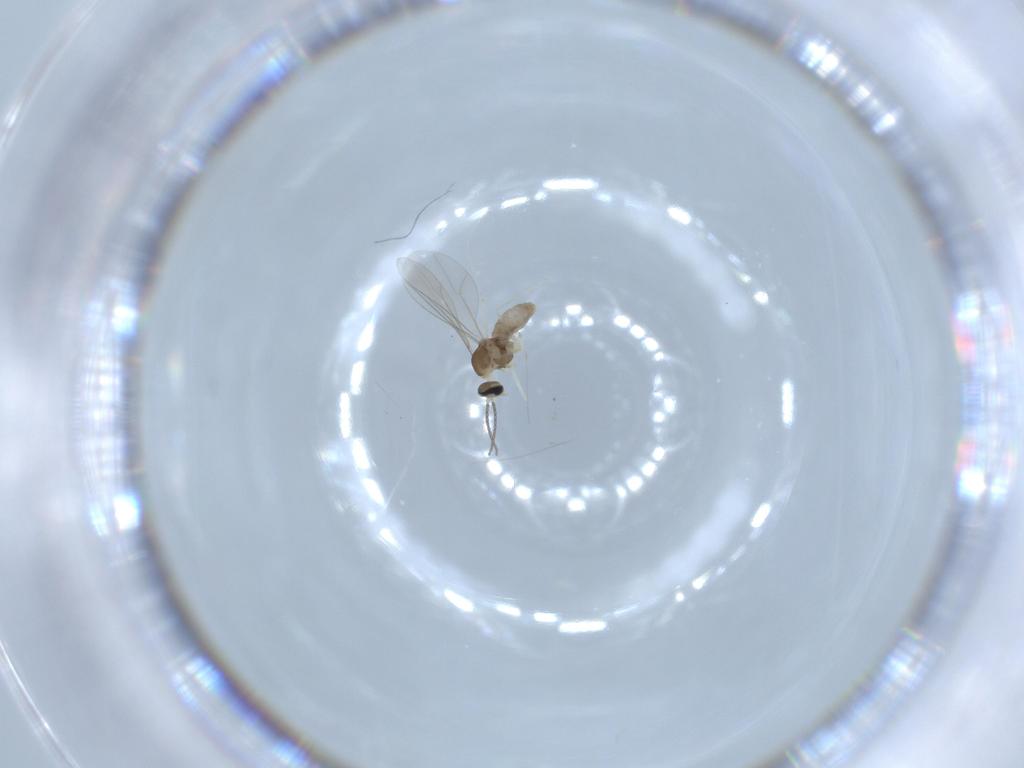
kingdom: Animalia
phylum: Arthropoda
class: Insecta
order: Diptera
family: Cecidomyiidae
